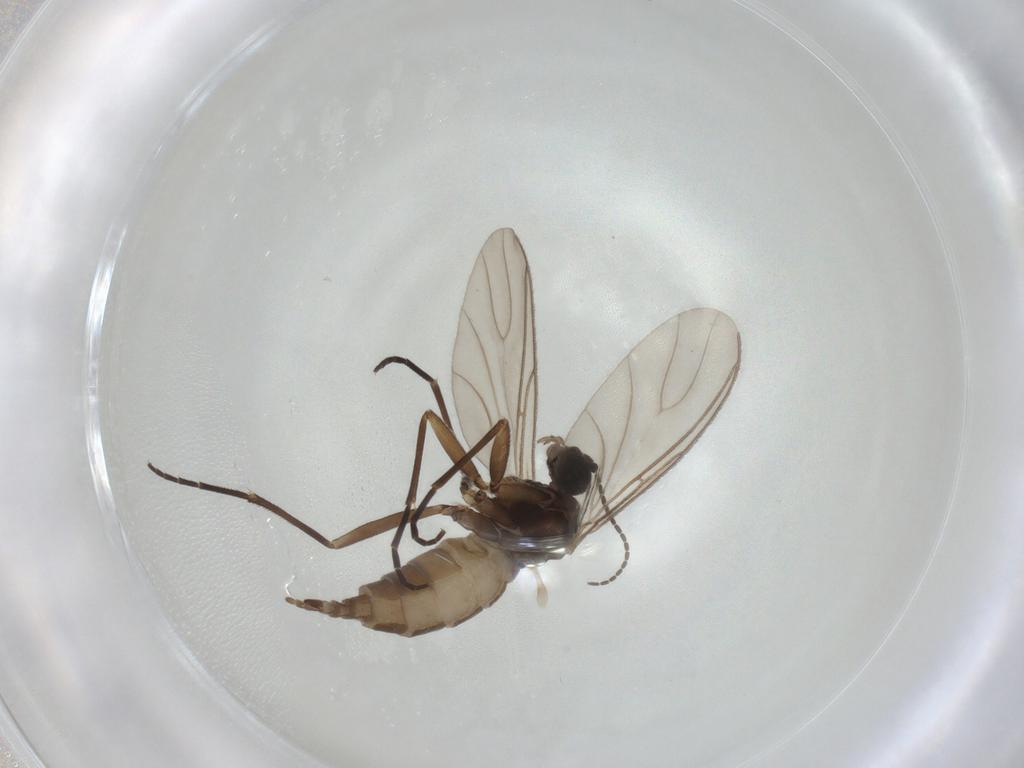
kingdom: Animalia
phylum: Arthropoda
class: Insecta
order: Diptera
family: Sciaridae
